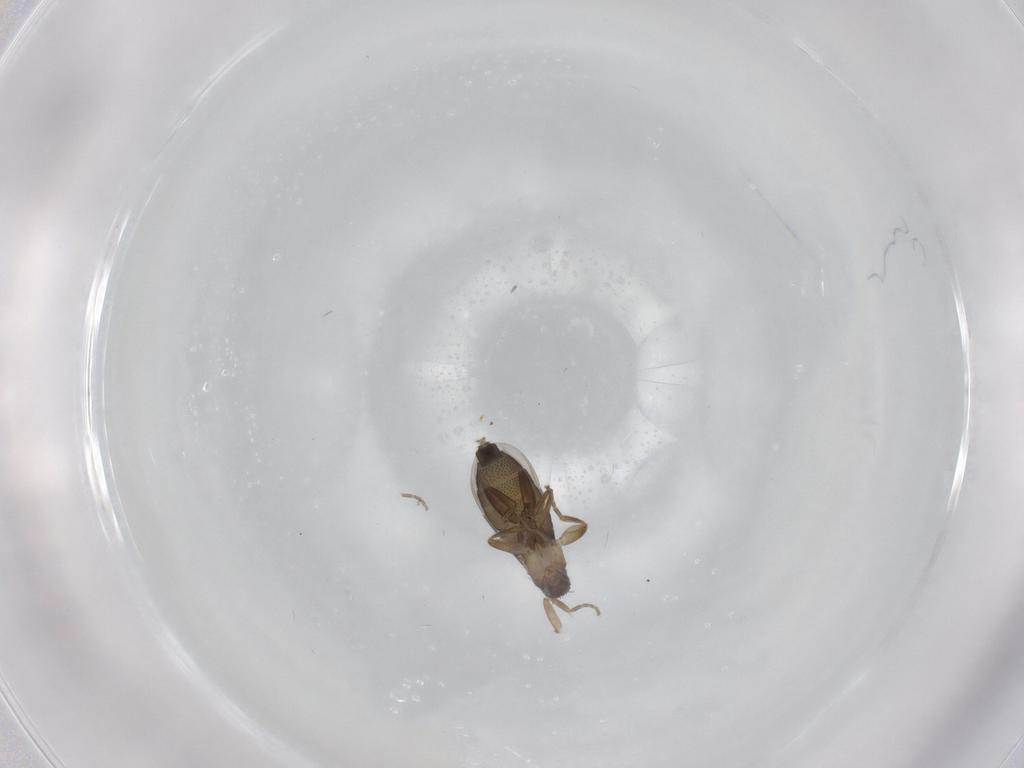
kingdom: Animalia
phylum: Arthropoda
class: Insecta
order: Diptera
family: Phoridae
